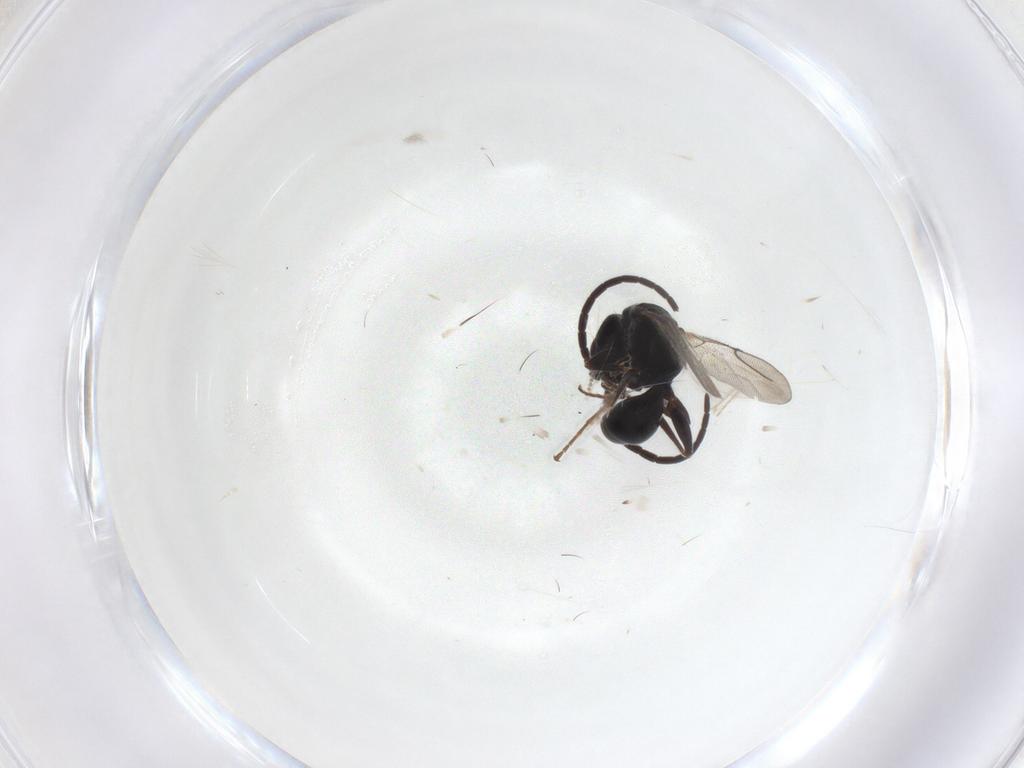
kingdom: Animalia
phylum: Arthropoda
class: Insecta
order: Hymenoptera
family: Bethylidae
